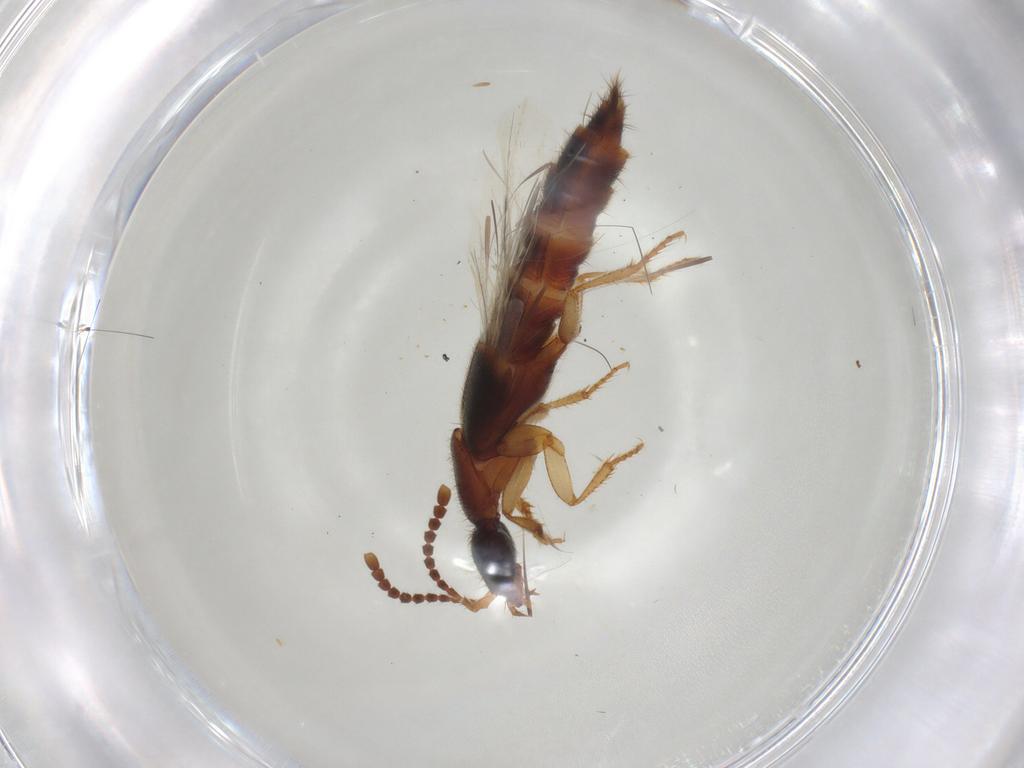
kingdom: Animalia
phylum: Arthropoda
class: Insecta
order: Coleoptera
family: Staphylinidae
